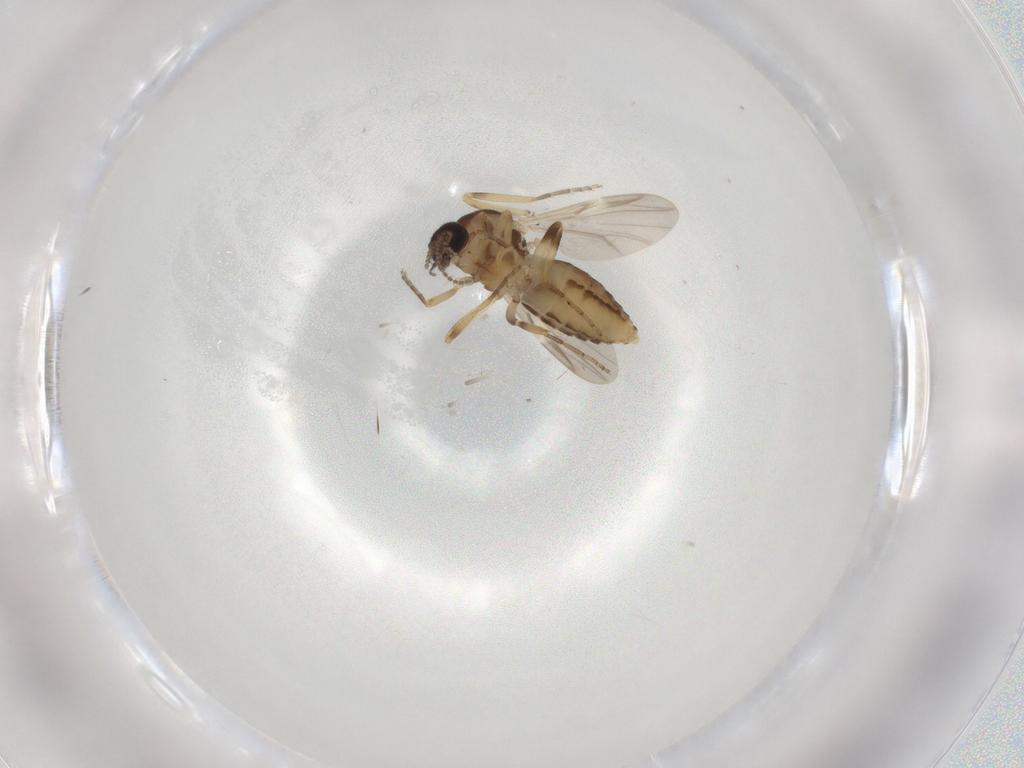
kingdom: Animalia
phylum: Arthropoda
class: Insecta
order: Diptera
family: Ceratopogonidae
